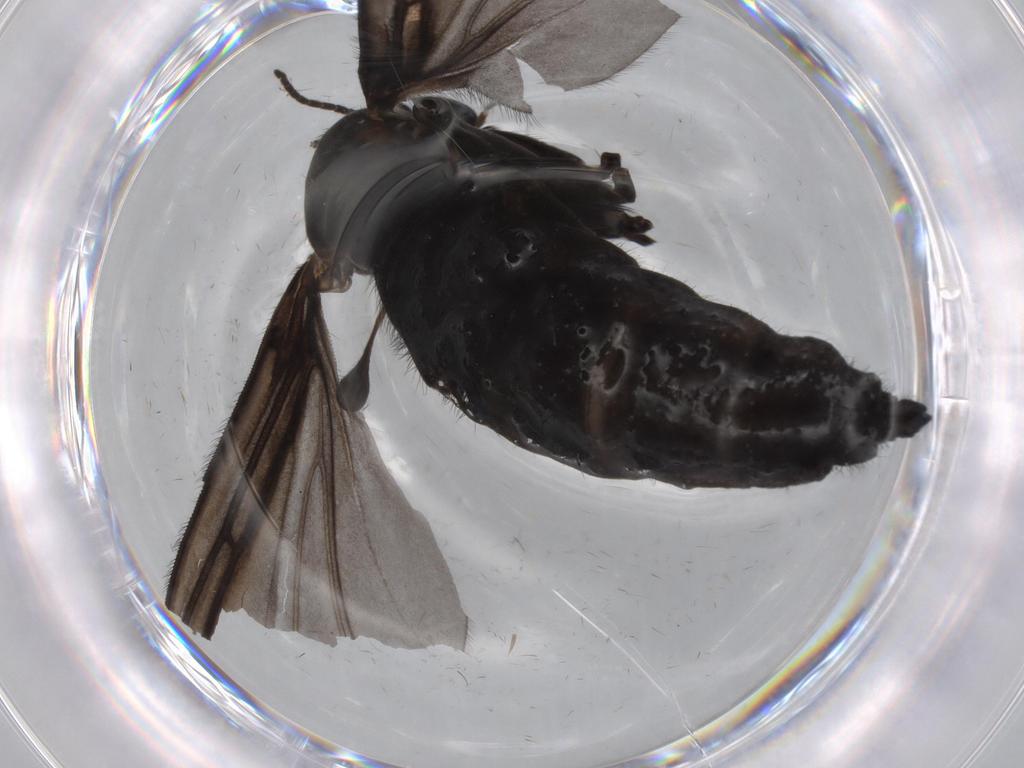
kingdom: Animalia
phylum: Arthropoda
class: Insecta
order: Diptera
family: Sciaridae
